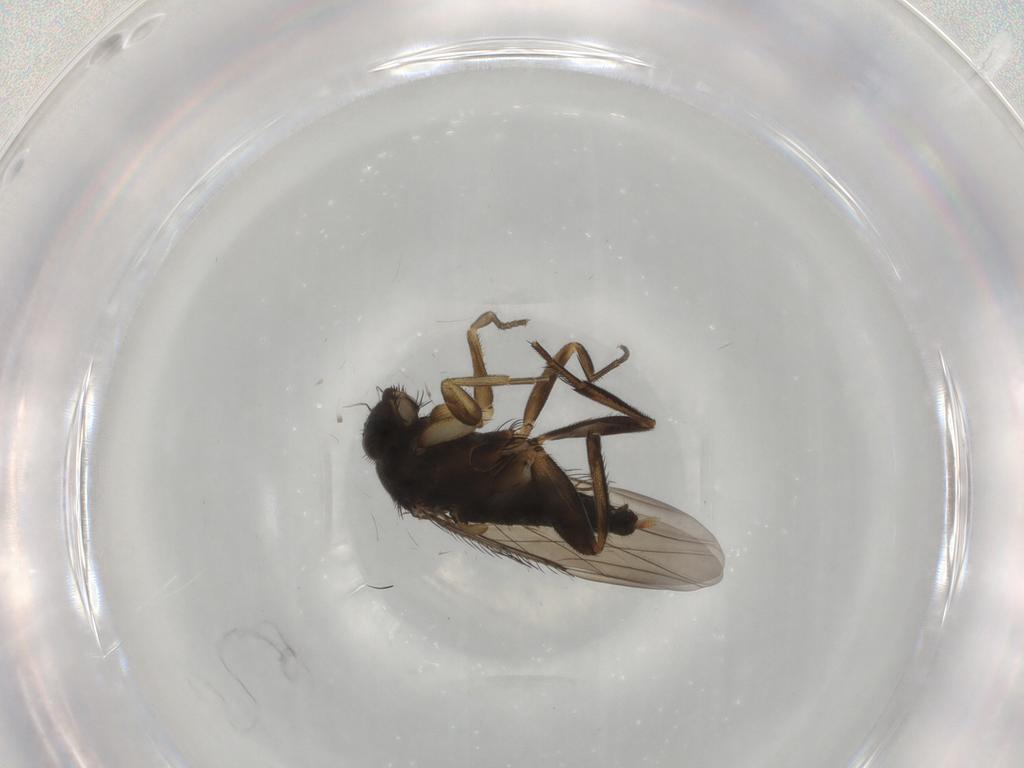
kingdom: Animalia
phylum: Arthropoda
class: Insecta
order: Diptera
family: Ceratopogonidae
